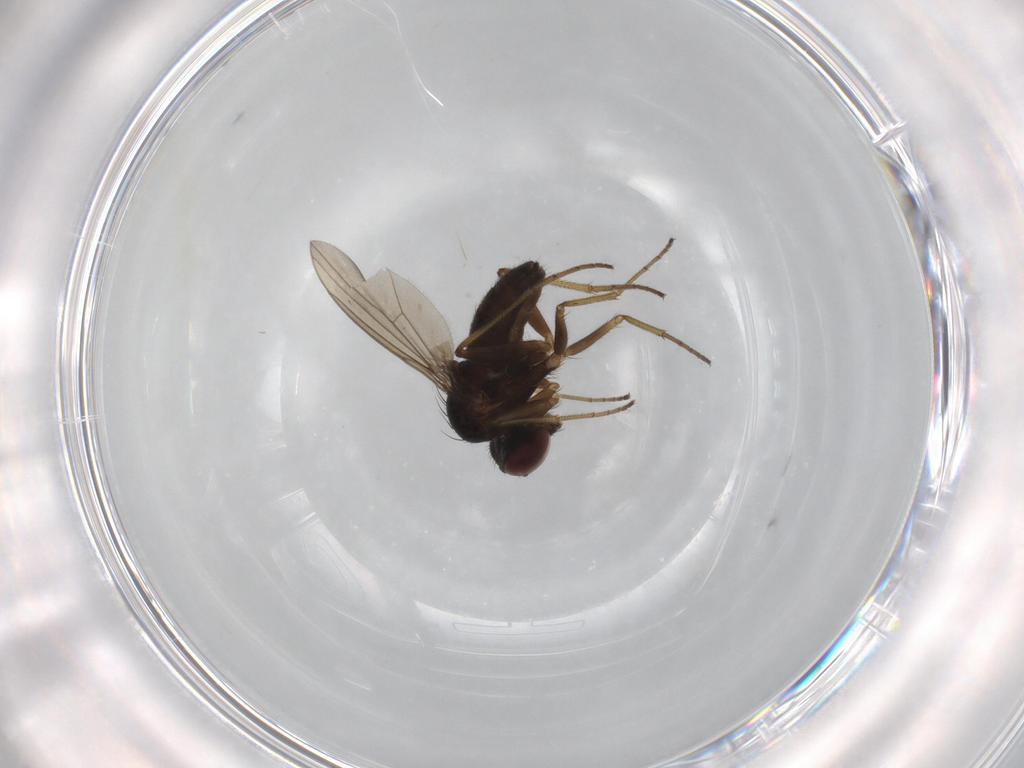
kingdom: Animalia
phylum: Arthropoda
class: Insecta
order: Diptera
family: Dolichopodidae
